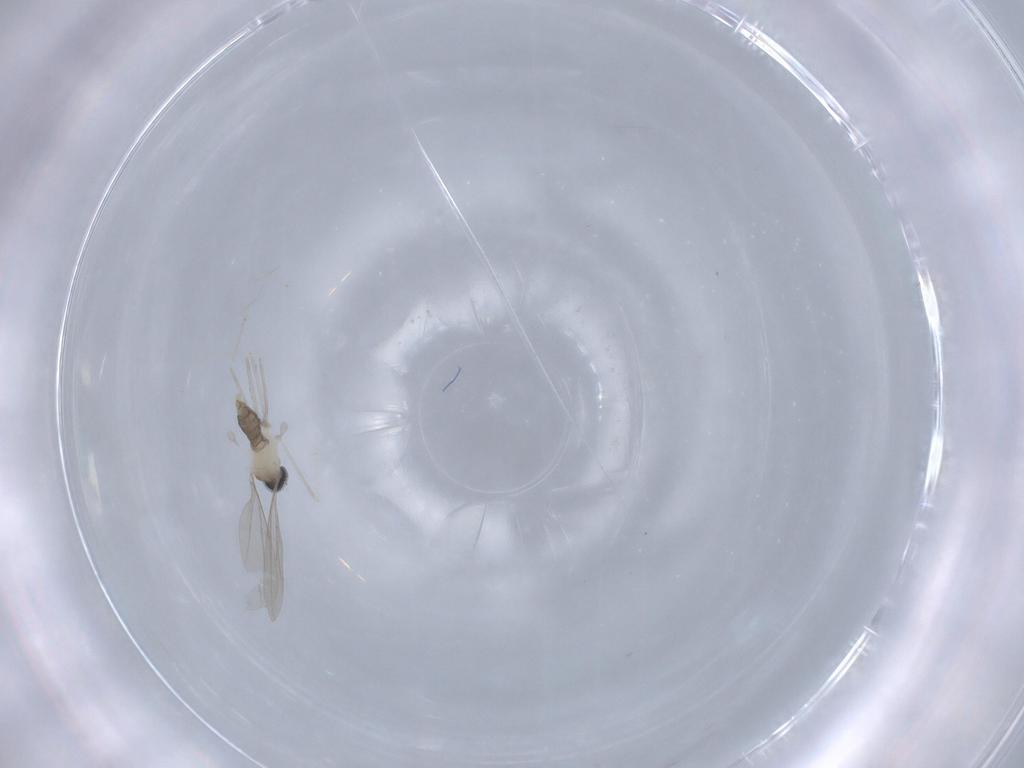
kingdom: Animalia
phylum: Arthropoda
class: Insecta
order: Diptera
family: Cecidomyiidae
